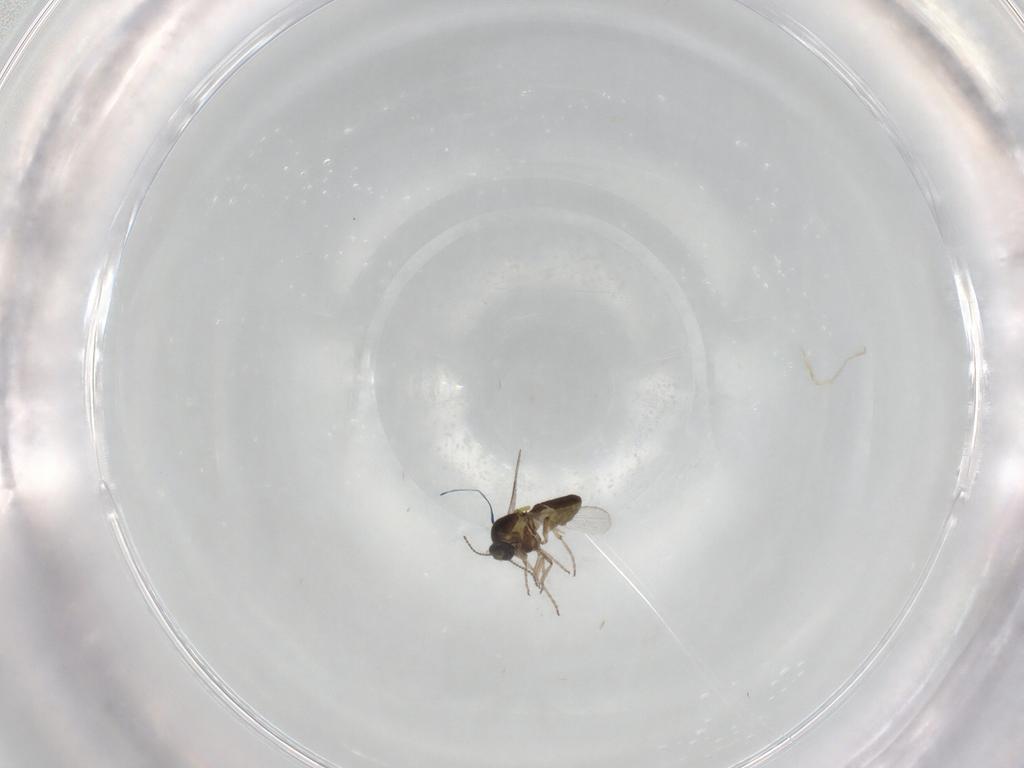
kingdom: Animalia
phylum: Arthropoda
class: Insecta
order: Diptera
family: Ceratopogonidae
